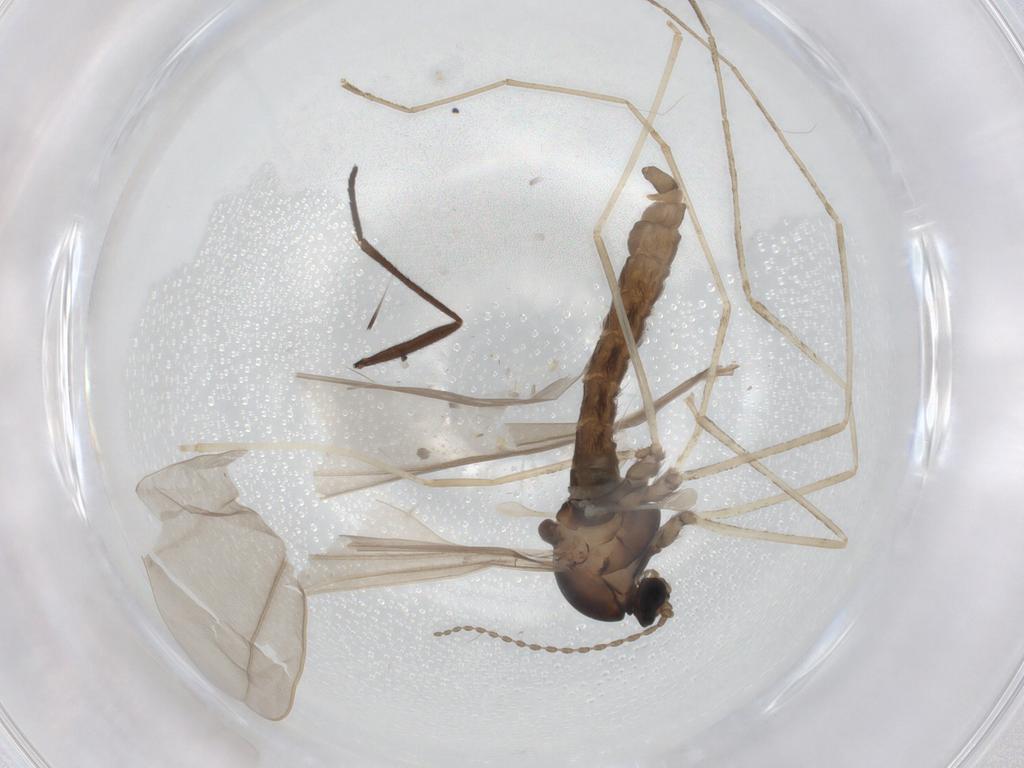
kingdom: Animalia
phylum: Arthropoda
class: Insecta
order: Diptera
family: Cecidomyiidae
